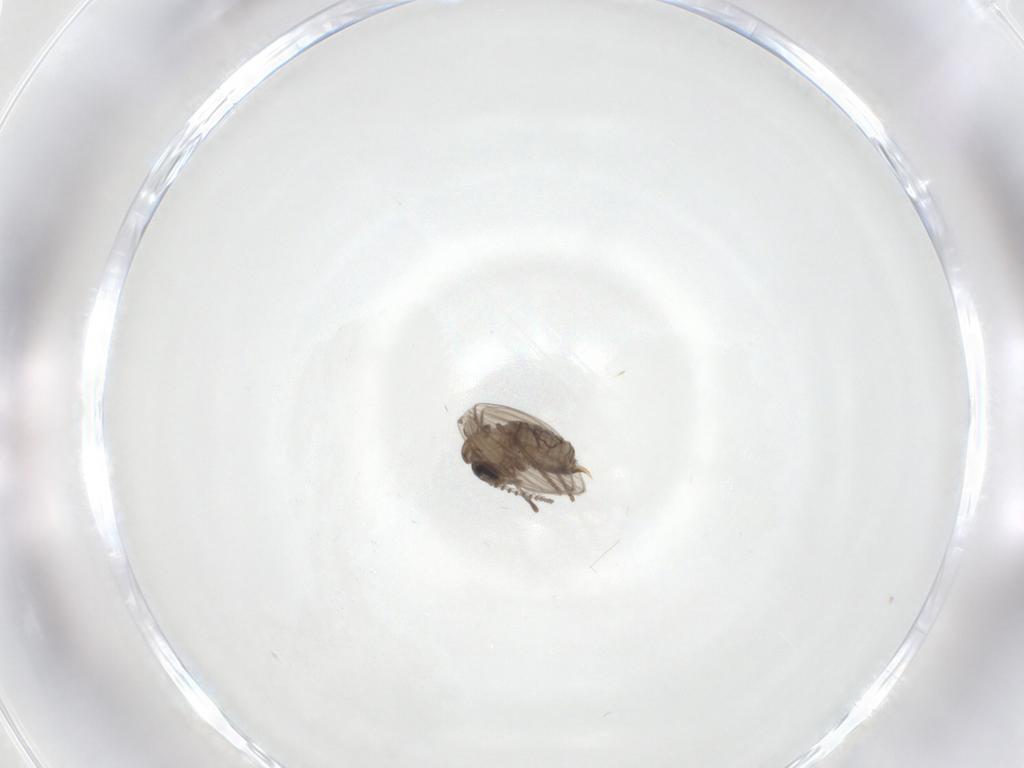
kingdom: Animalia
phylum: Arthropoda
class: Insecta
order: Diptera
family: Psychodidae
